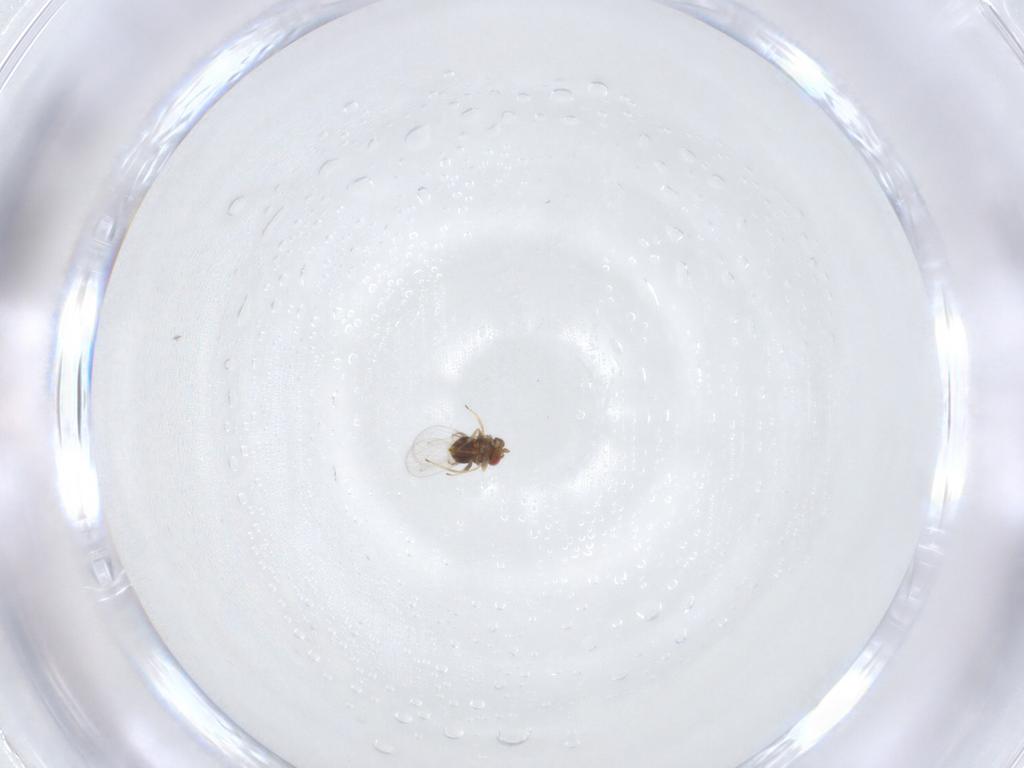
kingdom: Animalia
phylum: Arthropoda
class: Insecta
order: Hymenoptera
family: Trichogrammatidae
